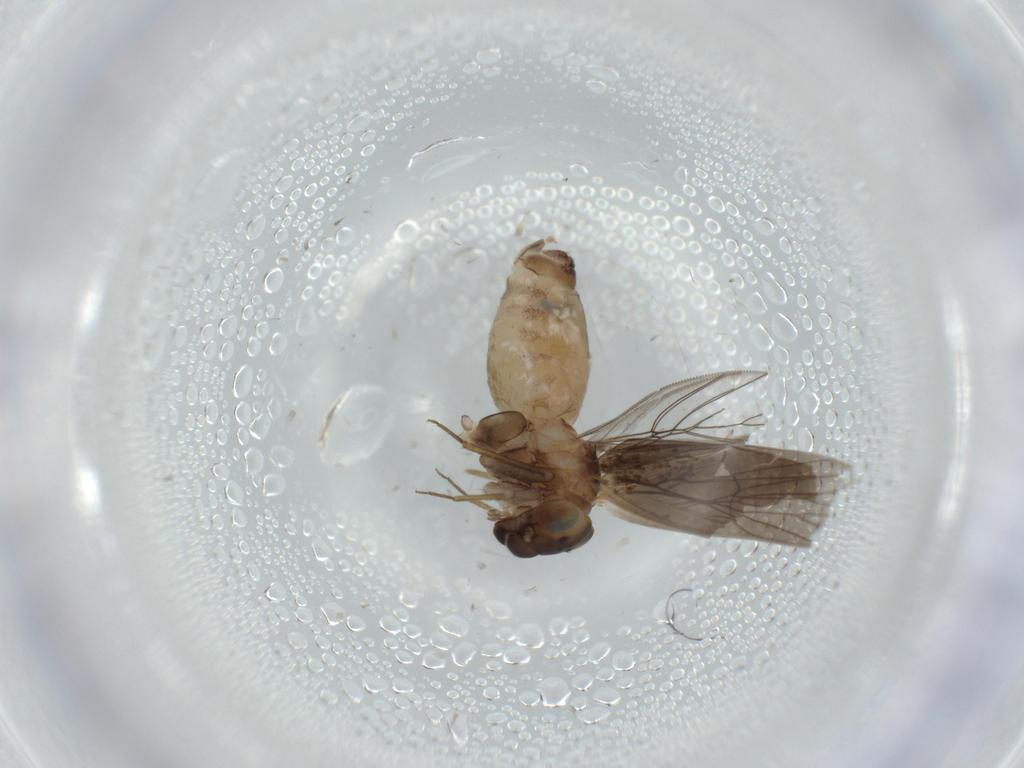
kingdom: Animalia
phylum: Arthropoda
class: Insecta
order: Psocodea
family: Lepidopsocidae
